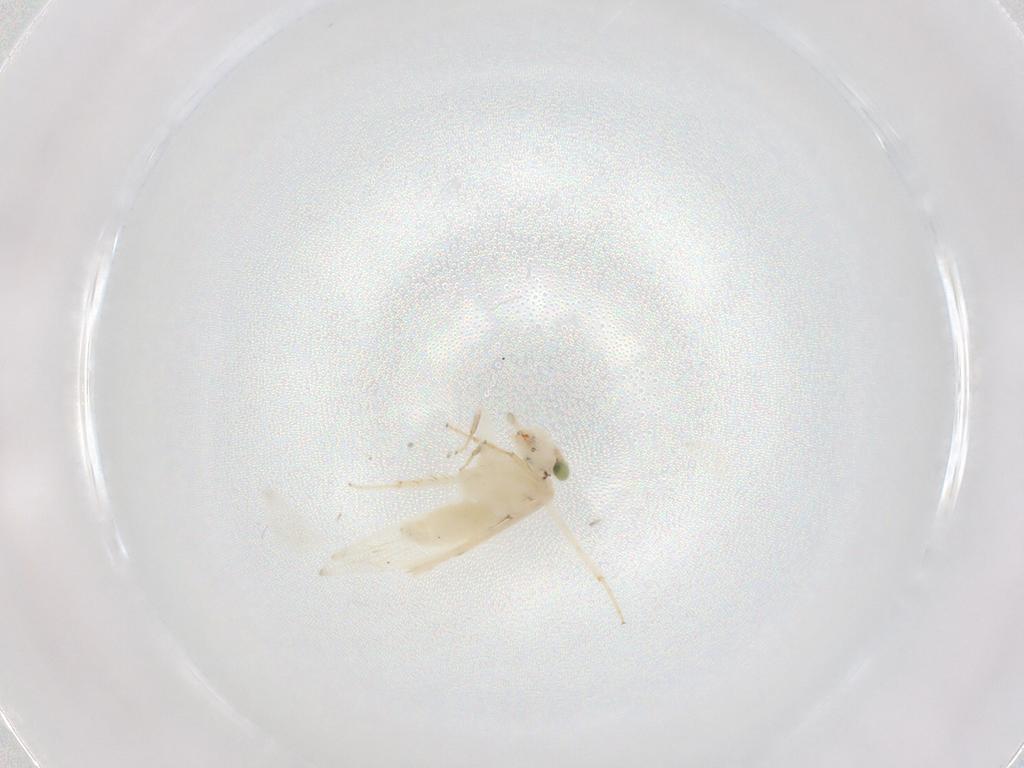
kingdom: Animalia
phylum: Arthropoda
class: Insecta
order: Psocodea
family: Lepidopsocidae
